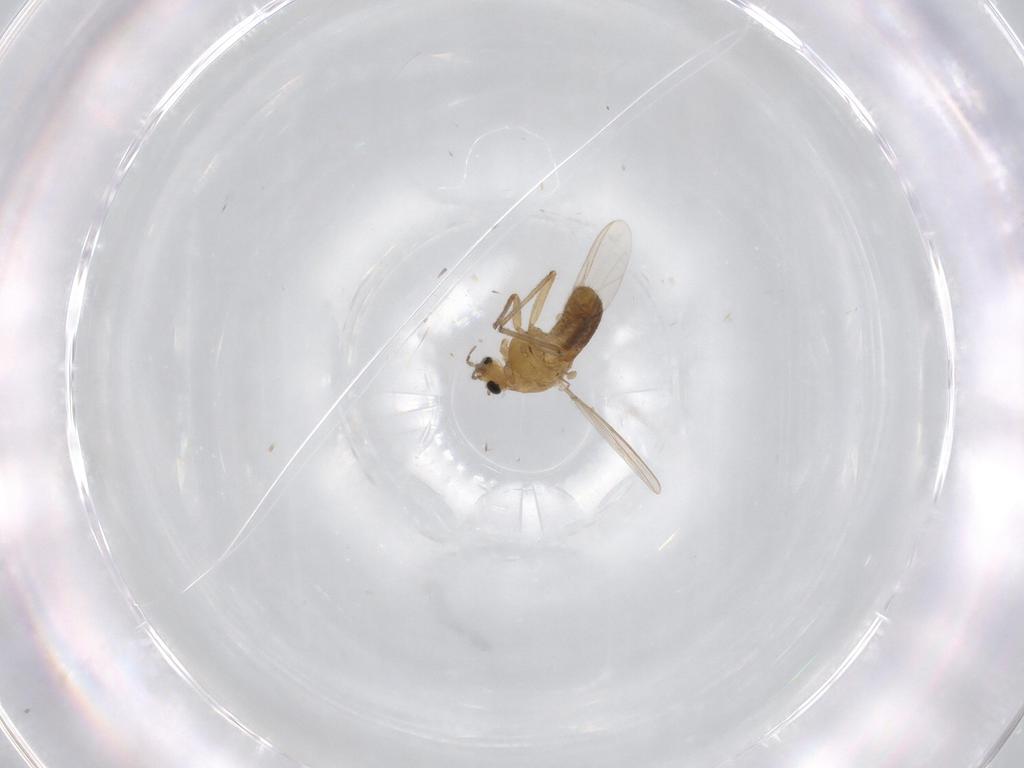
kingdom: Animalia
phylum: Arthropoda
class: Insecta
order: Diptera
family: Chironomidae
